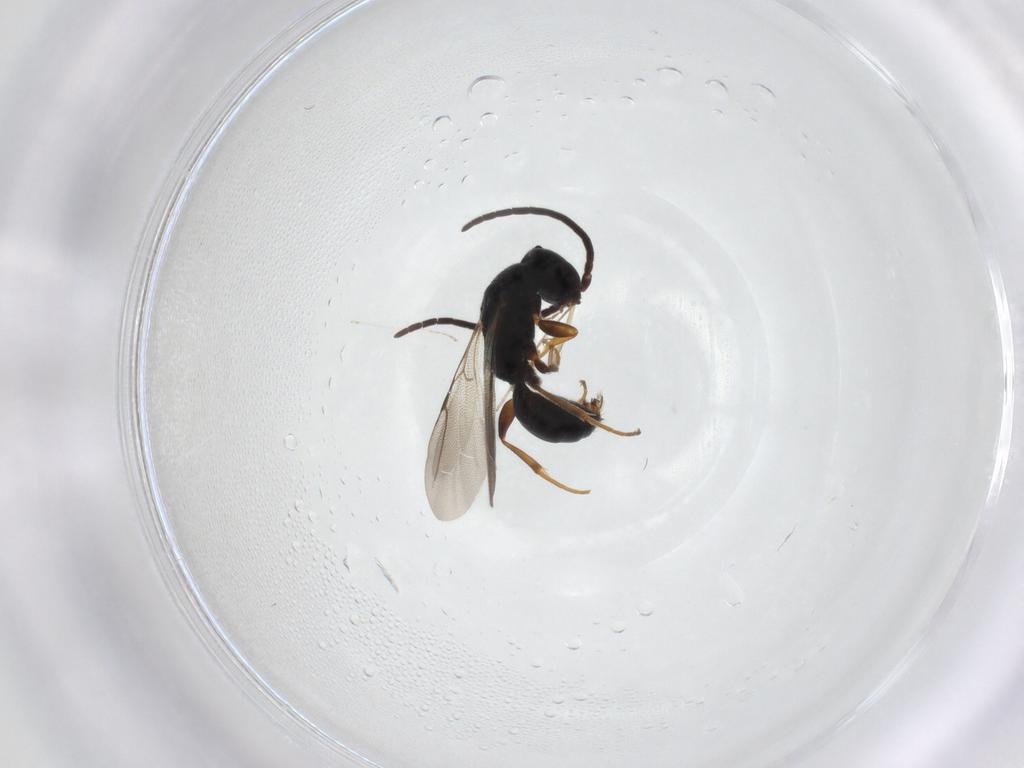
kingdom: Animalia
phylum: Arthropoda
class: Insecta
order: Hymenoptera
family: Bethylidae
